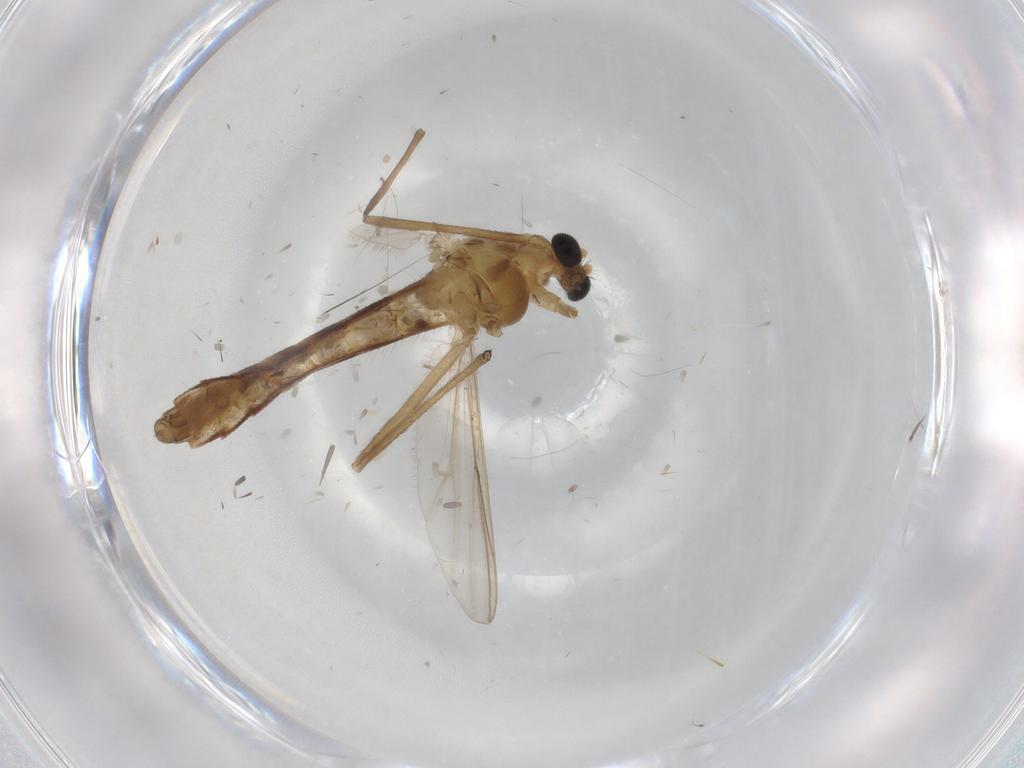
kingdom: Animalia
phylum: Arthropoda
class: Insecta
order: Diptera
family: Chironomidae
